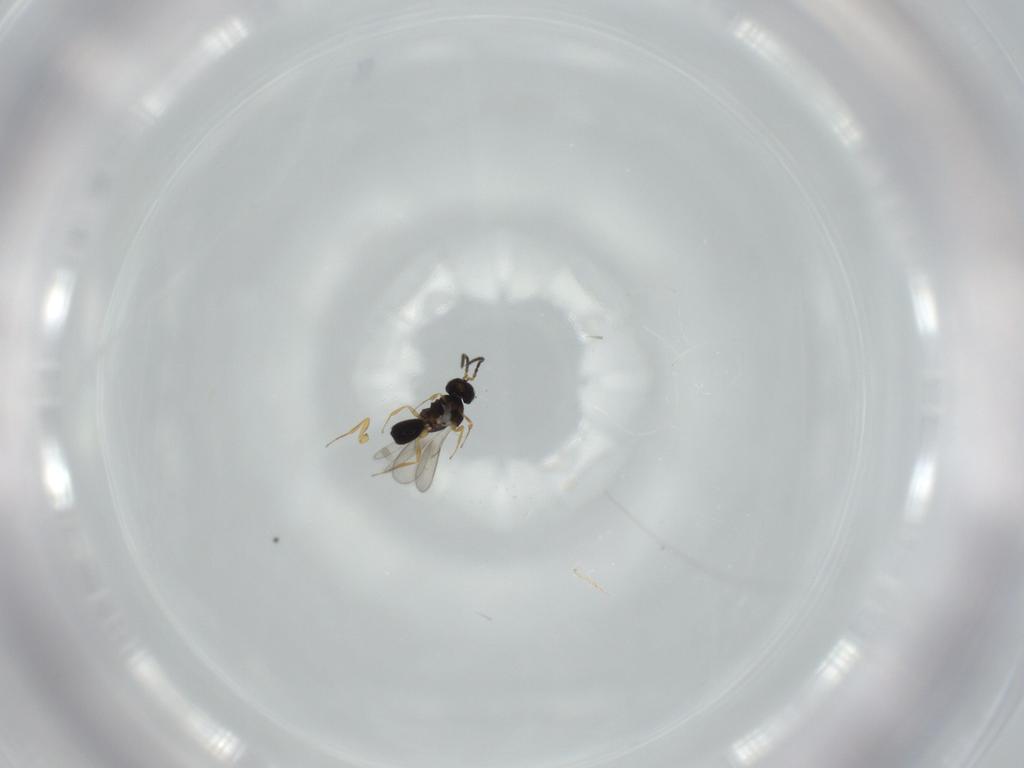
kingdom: Animalia
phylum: Arthropoda
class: Insecta
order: Hymenoptera
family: Scelionidae
